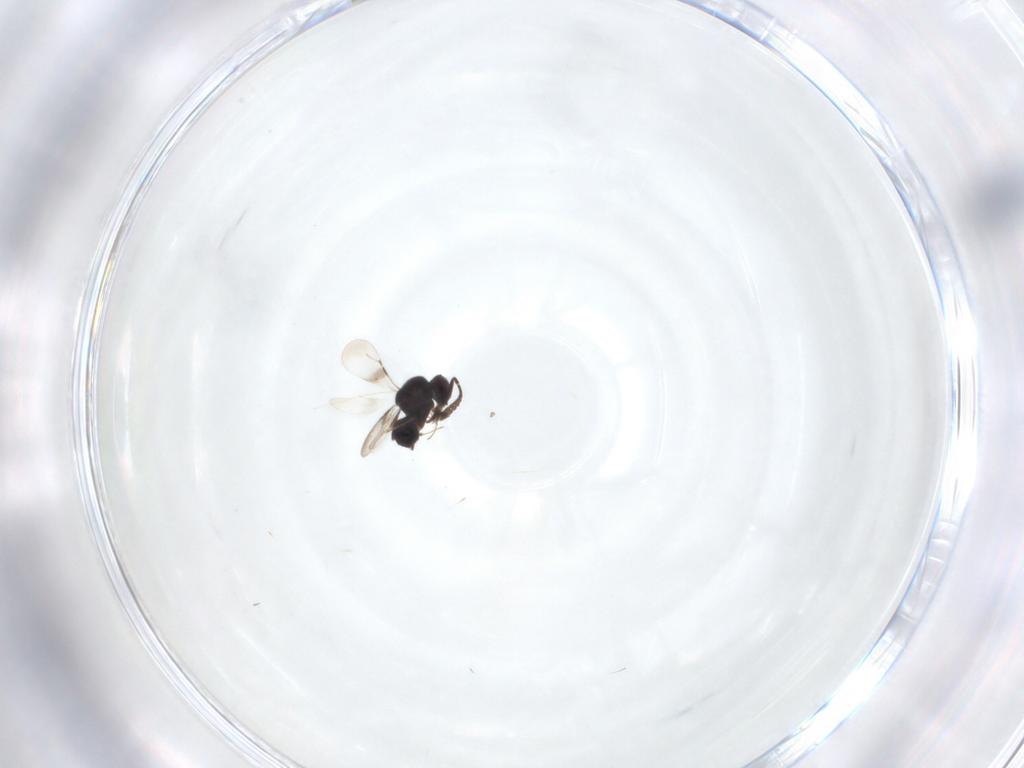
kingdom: Animalia
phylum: Arthropoda
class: Insecta
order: Hymenoptera
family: Ceraphronidae
